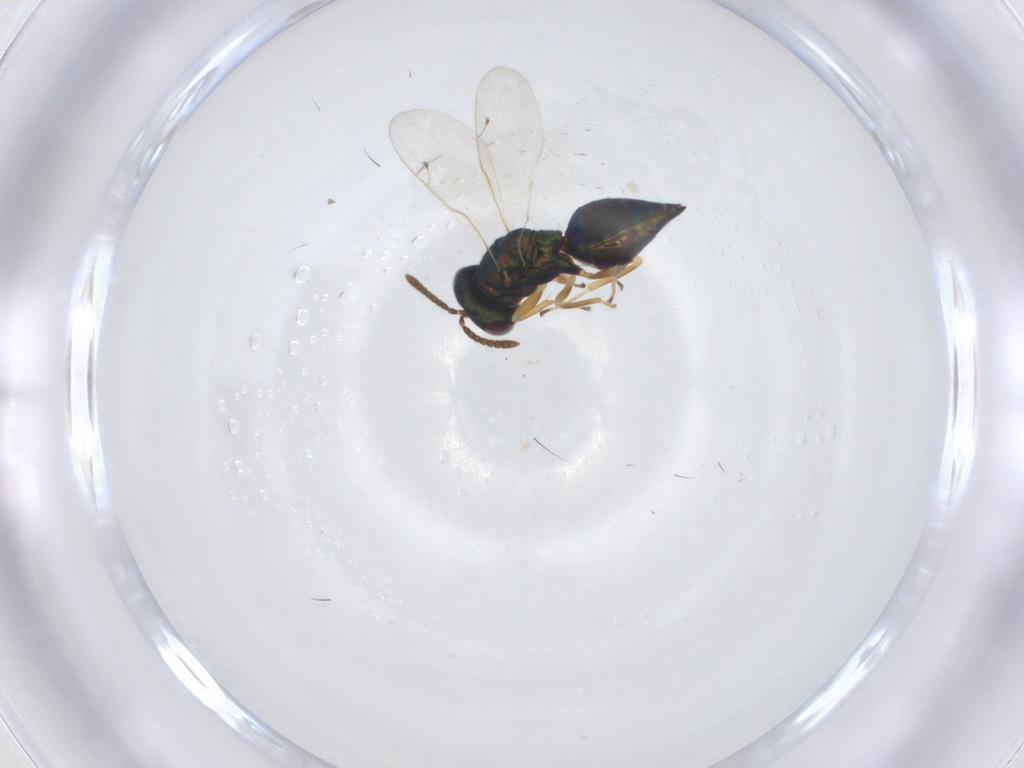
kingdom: Animalia
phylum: Arthropoda
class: Insecta
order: Hymenoptera
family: Pteromalidae
